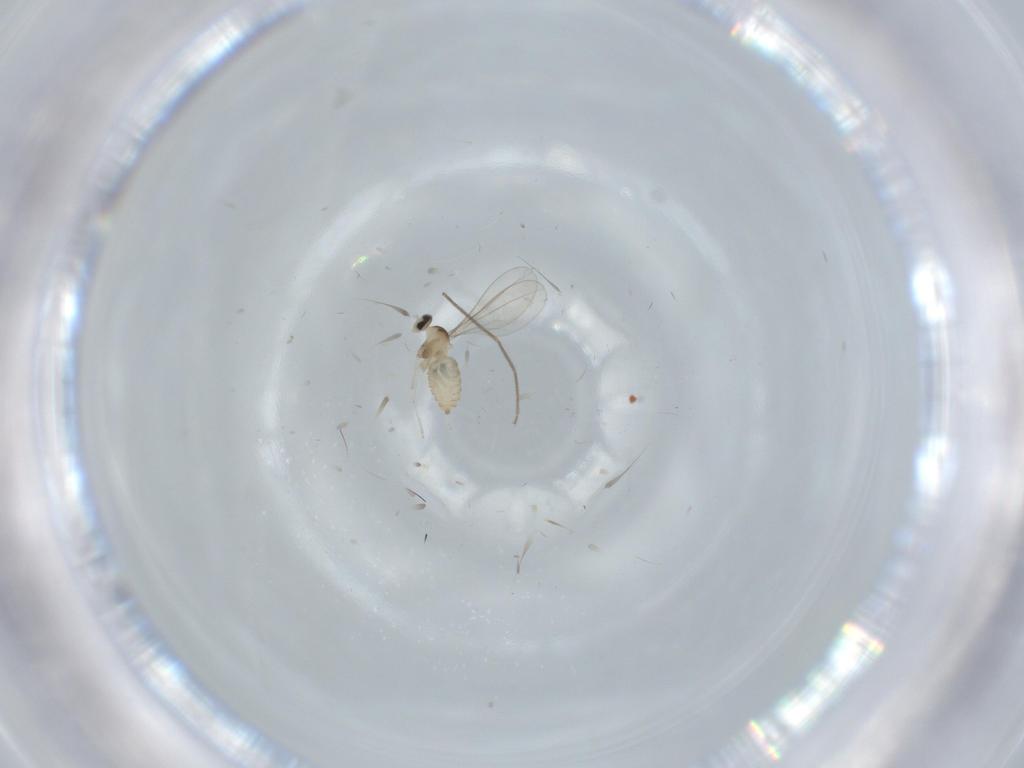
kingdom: Animalia
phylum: Arthropoda
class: Insecta
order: Diptera
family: Cecidomyiidae
